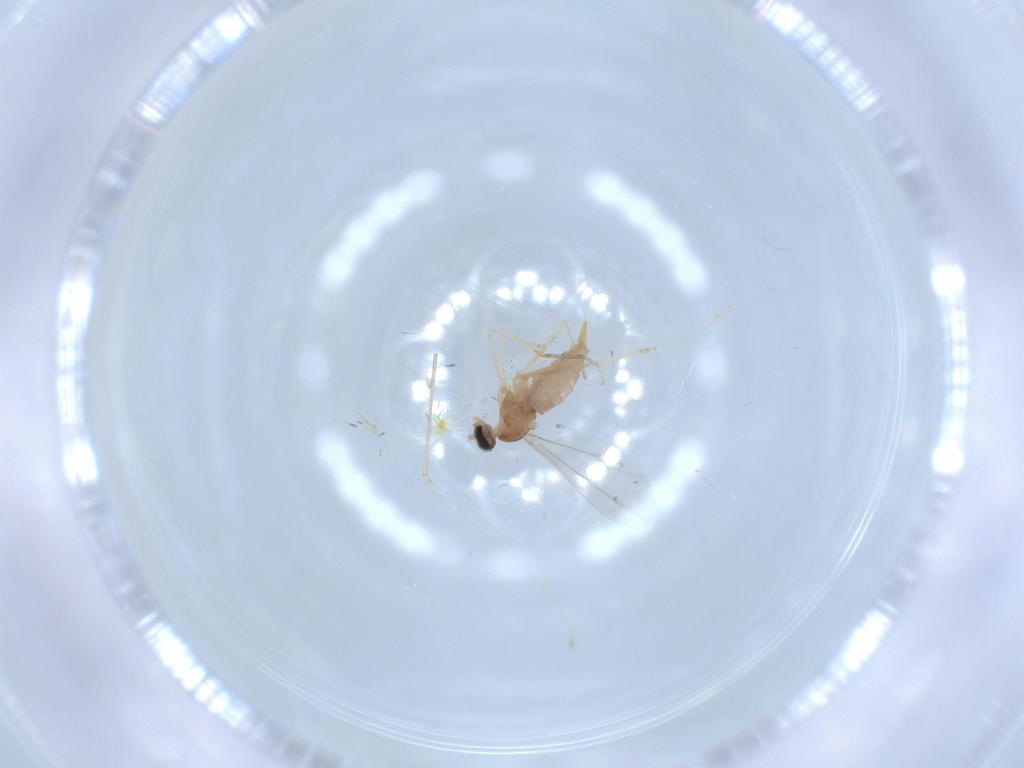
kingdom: Animalia
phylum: Arthropoda
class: Insecta
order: Diptera
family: Cecidomyiidae
